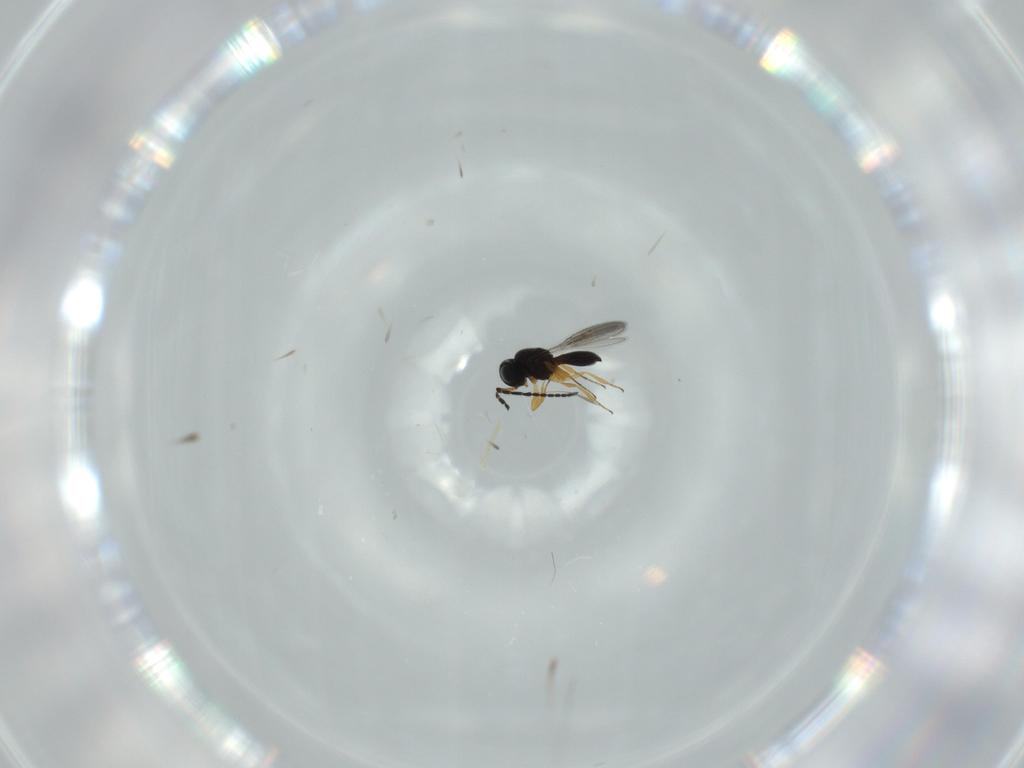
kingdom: Animalia
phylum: Arthropoda
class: Insecta
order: Hymenoptera
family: Scelionidae
